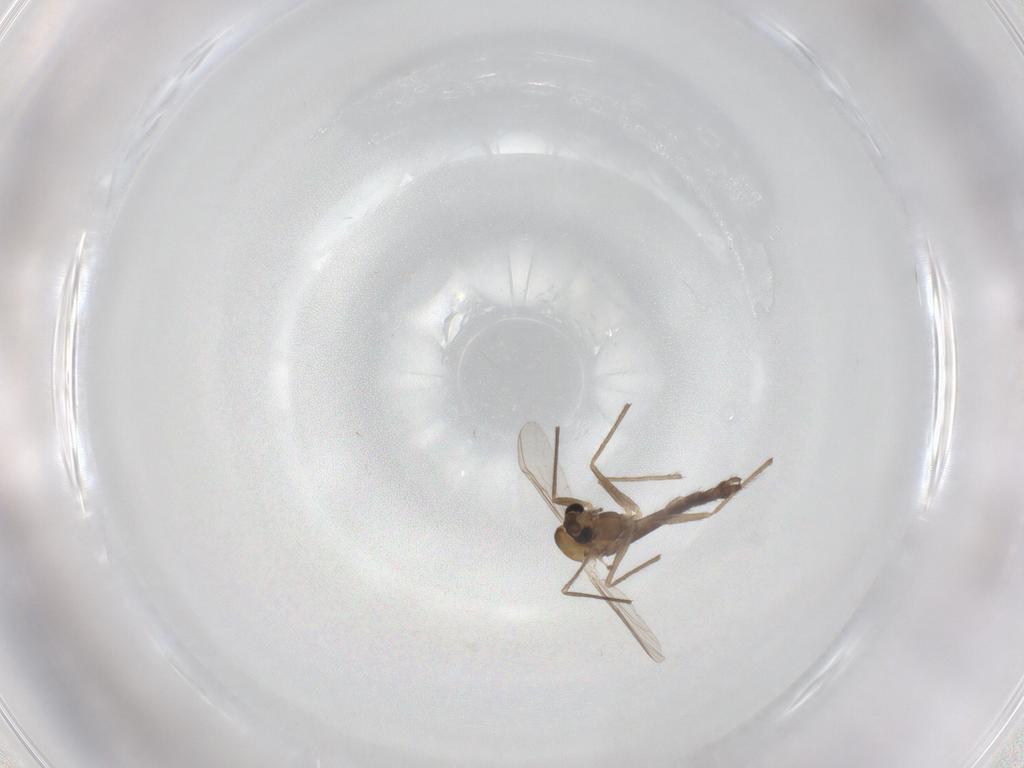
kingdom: Animalia
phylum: Arthropoda
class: Insecta
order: Diptera
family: Chironomidae
